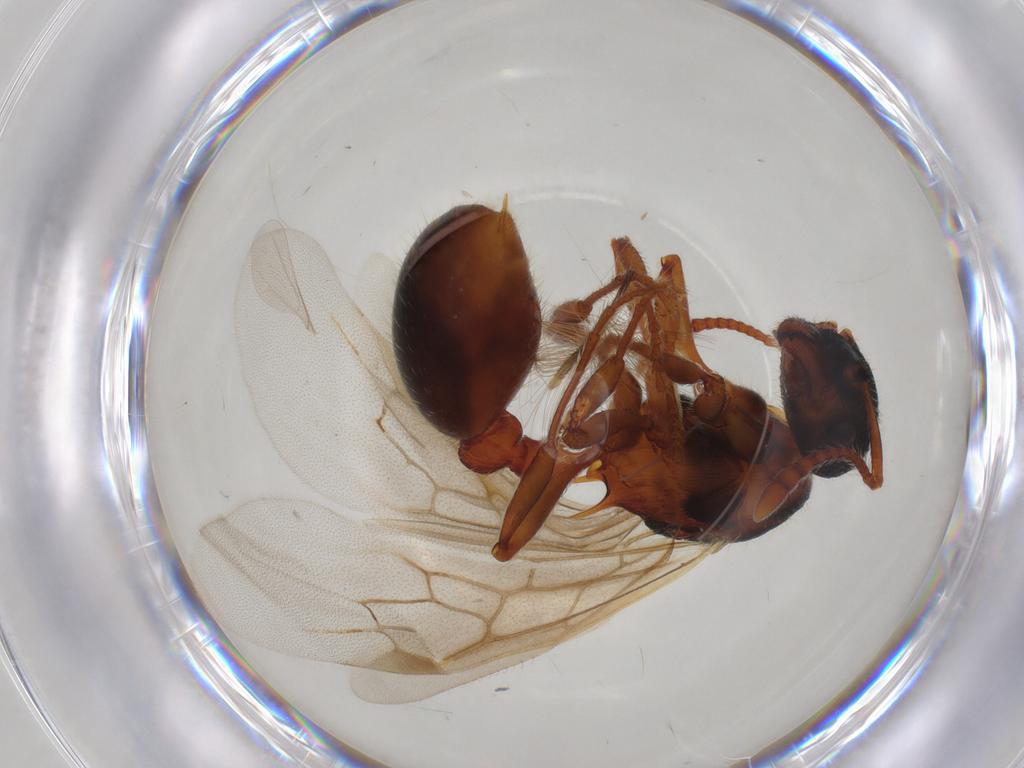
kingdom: Animalia
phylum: Arthropoda
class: Insecta
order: Hymenoptera
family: Formicidae
